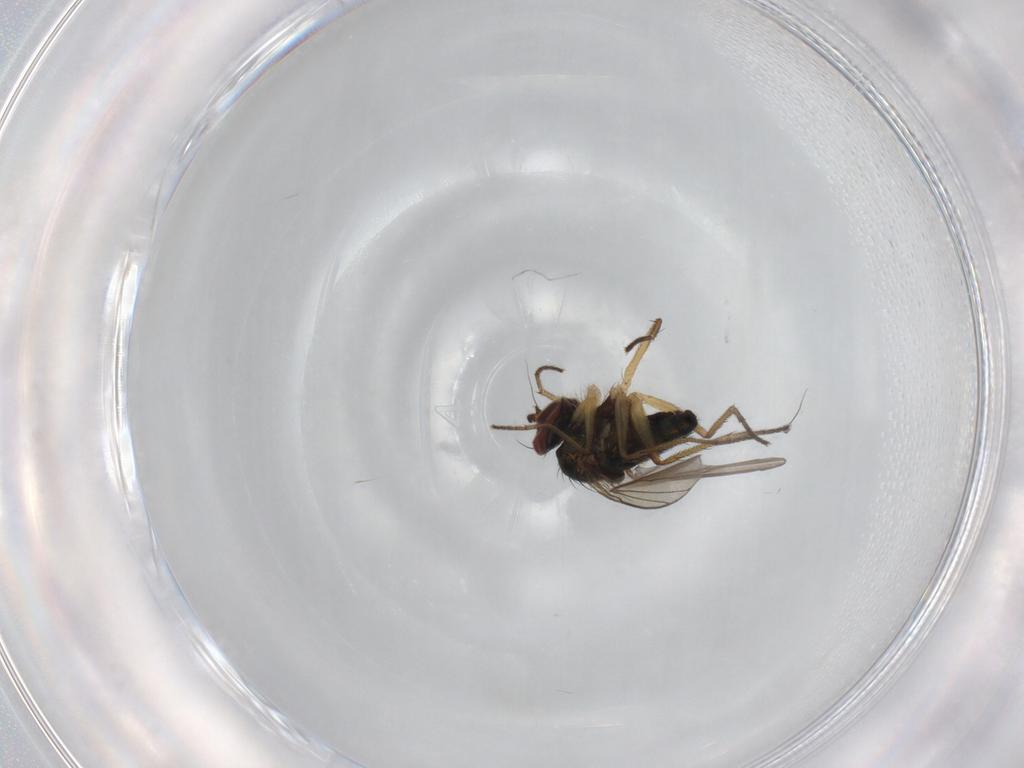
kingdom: Animalia
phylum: Arthropoda
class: Insecta
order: Diptera
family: Dolichopodidae
